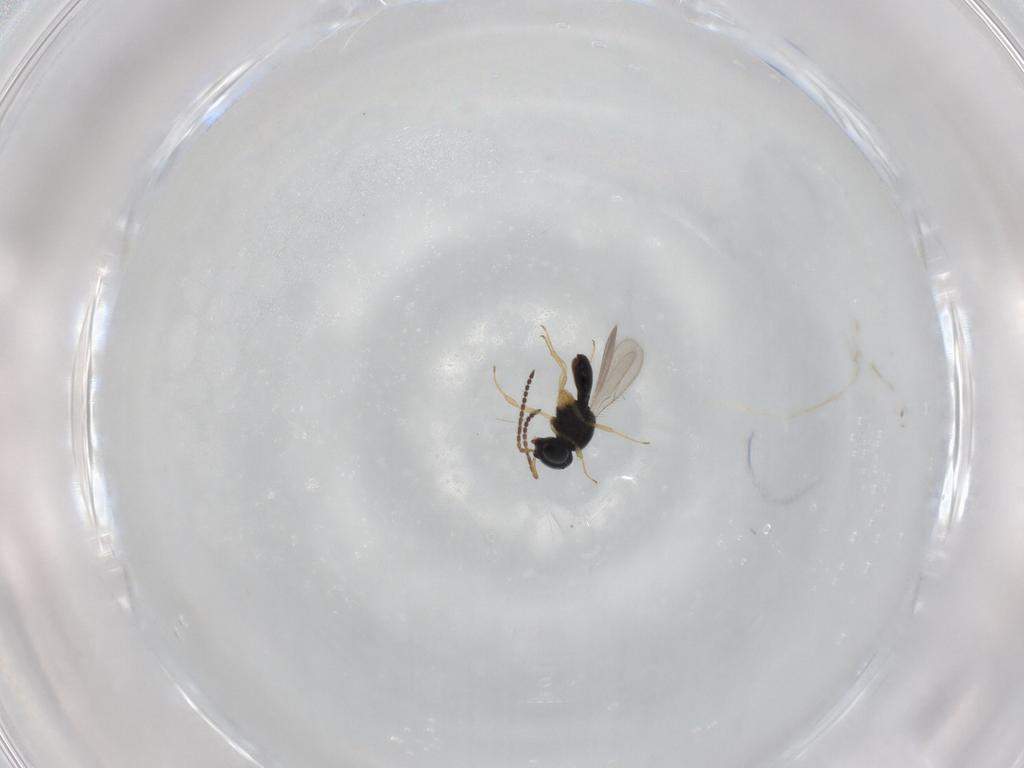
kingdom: Animalia
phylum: Arthropoda
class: Insecta
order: Hymenoptera
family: Scelionidae
